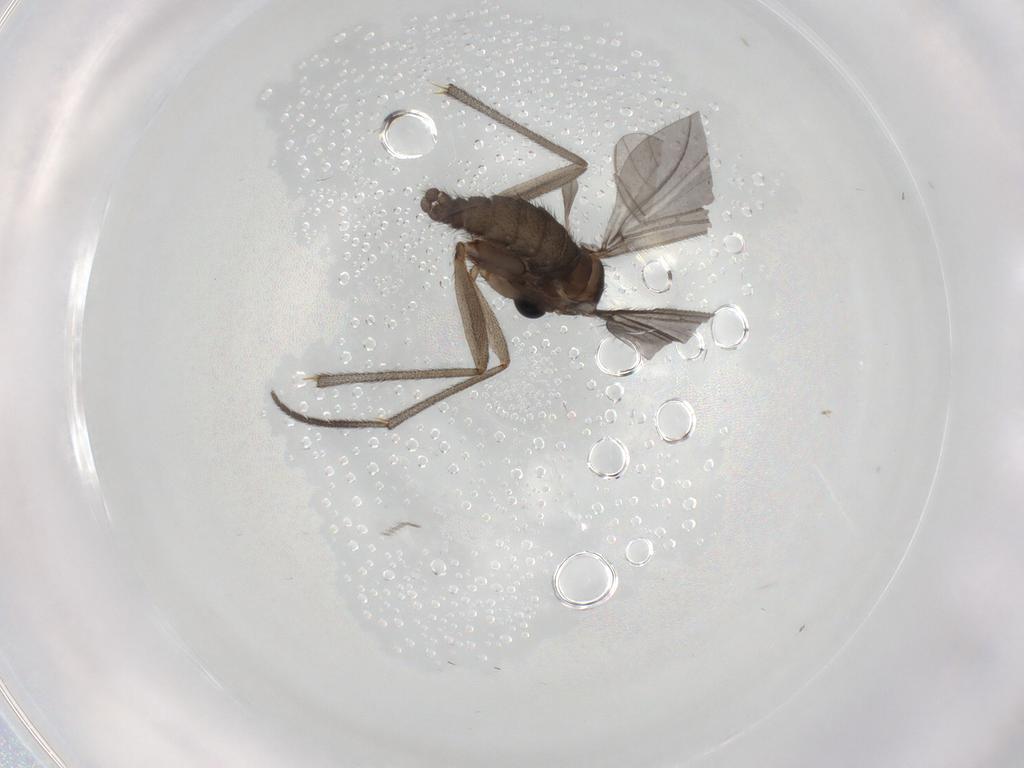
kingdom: Animalia
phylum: Arthropoda
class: Insecta
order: Diptera
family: Sciaridae
